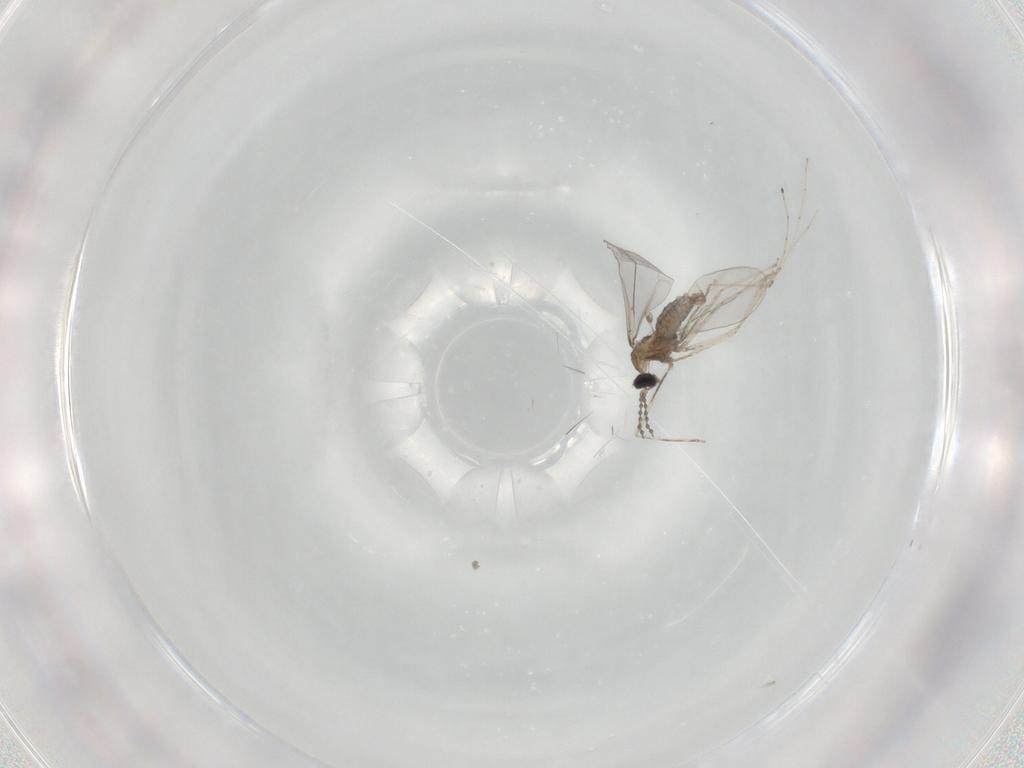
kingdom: Animalia
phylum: Arthropoda
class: Insecta
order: Diptera
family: Cecidomyiidae
